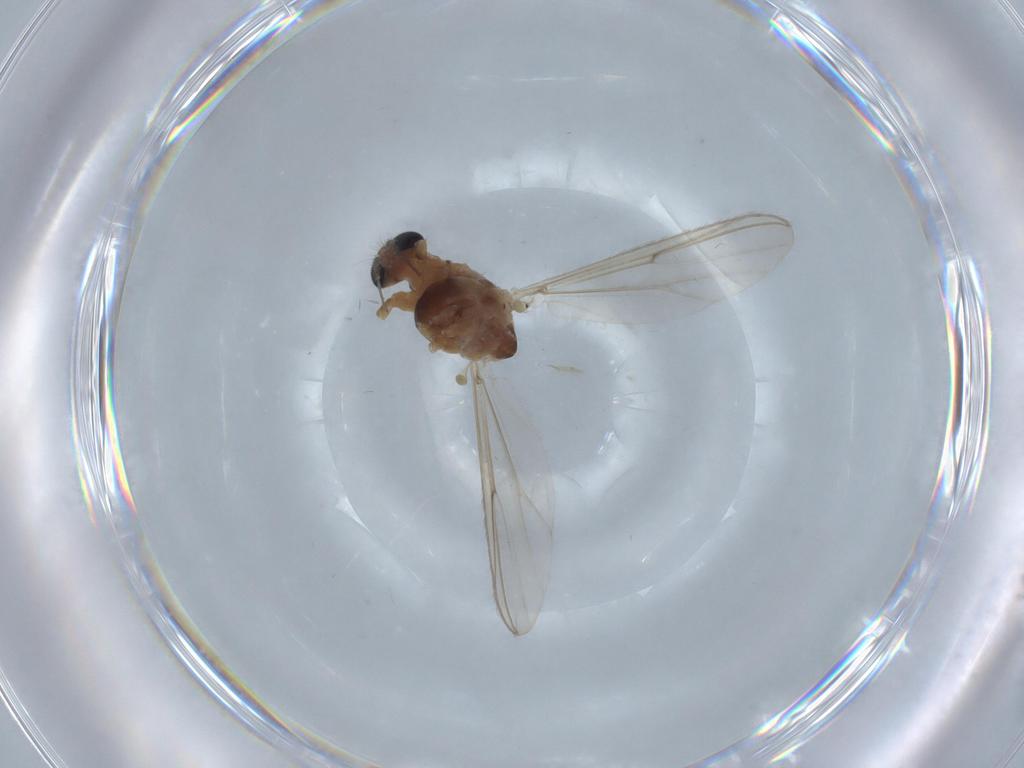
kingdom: Animalia
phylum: Arthropoda
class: Insecta
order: Diptera
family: Chironomidae
